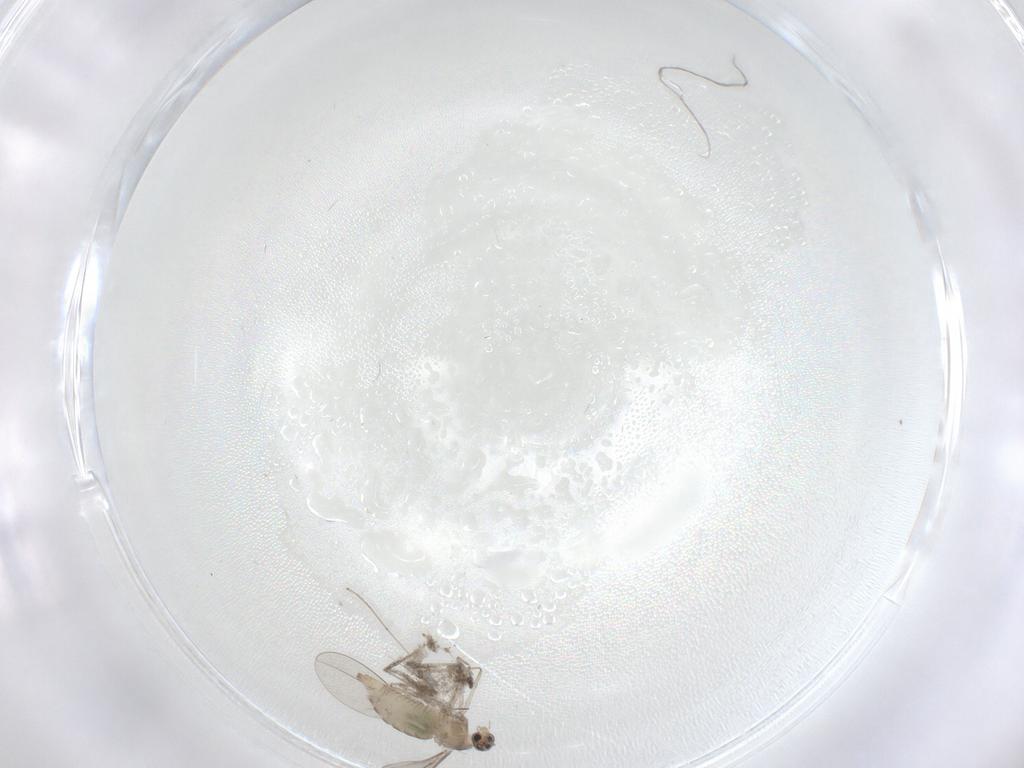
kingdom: Animalia
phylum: Arthropoda
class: Insecta
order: Diptera
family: Cecidomyiidae
